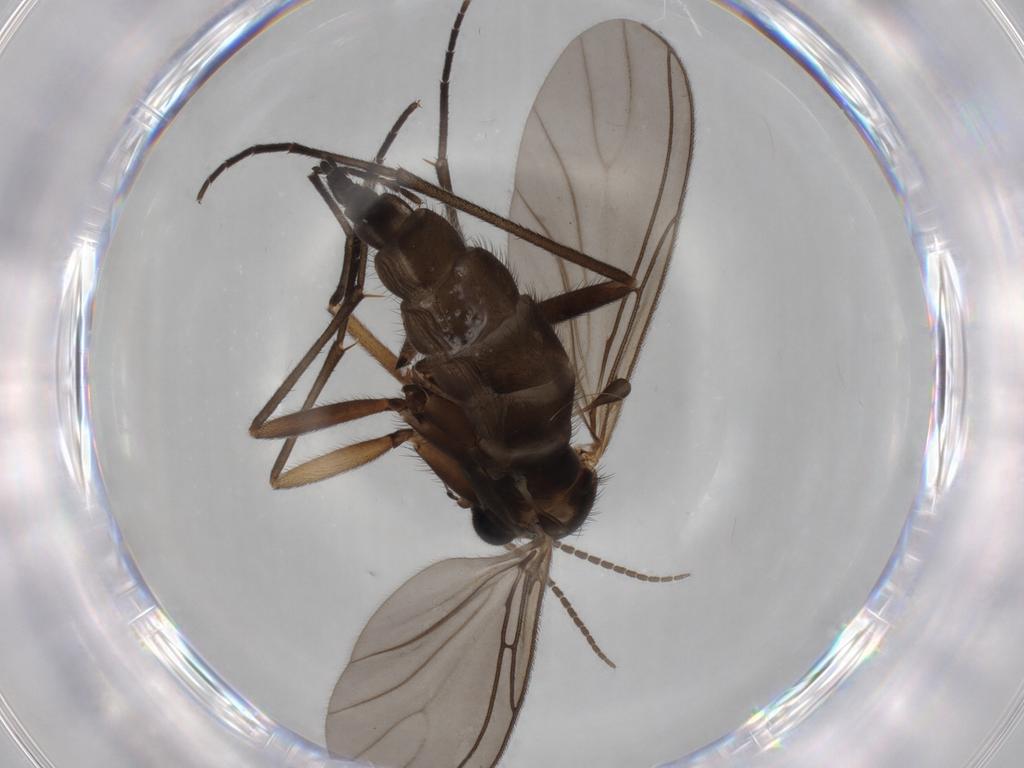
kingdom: Animalia
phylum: Arthropoda
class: Insecta
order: Diptera
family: Sciaridae
